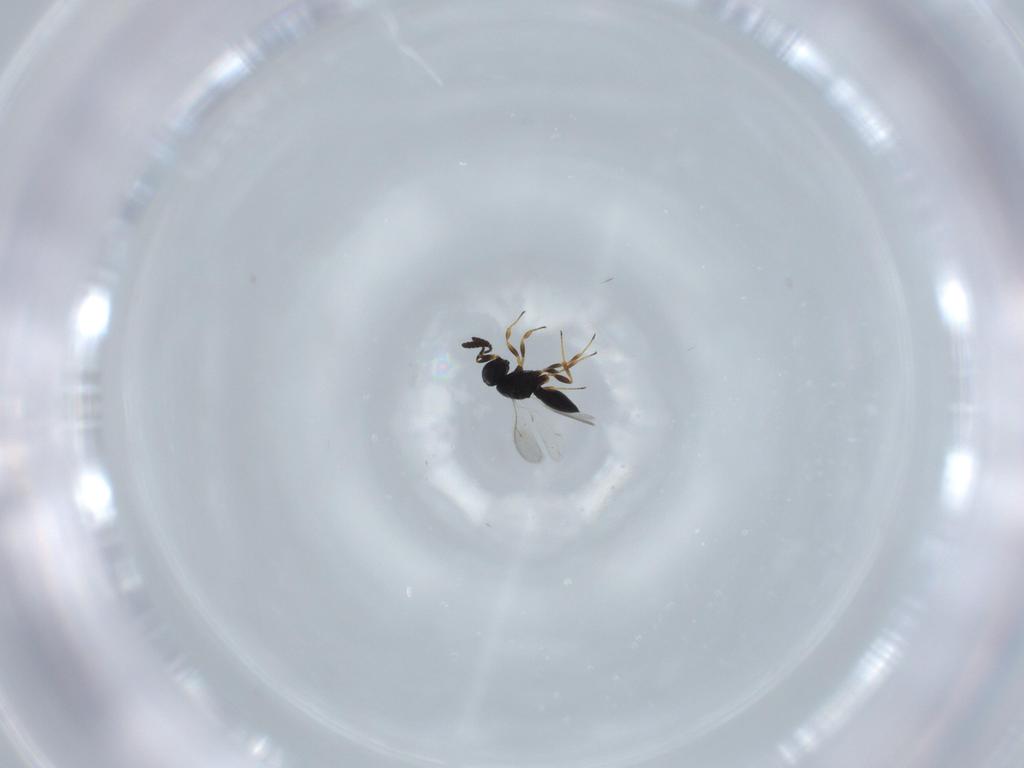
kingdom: Animalia
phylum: Arthropoda
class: Insecta
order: Hymenoptera
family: Scelionidae
